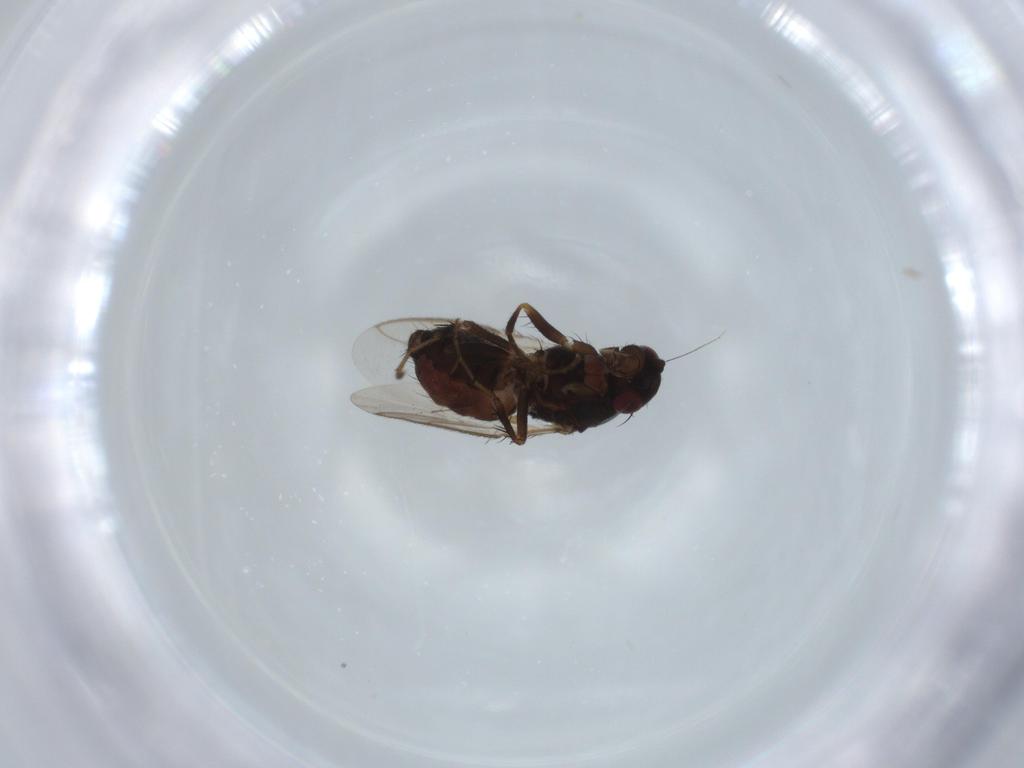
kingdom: Animalia
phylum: Arthropoda
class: Insecta
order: Diptera
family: Sphaeroceridae
